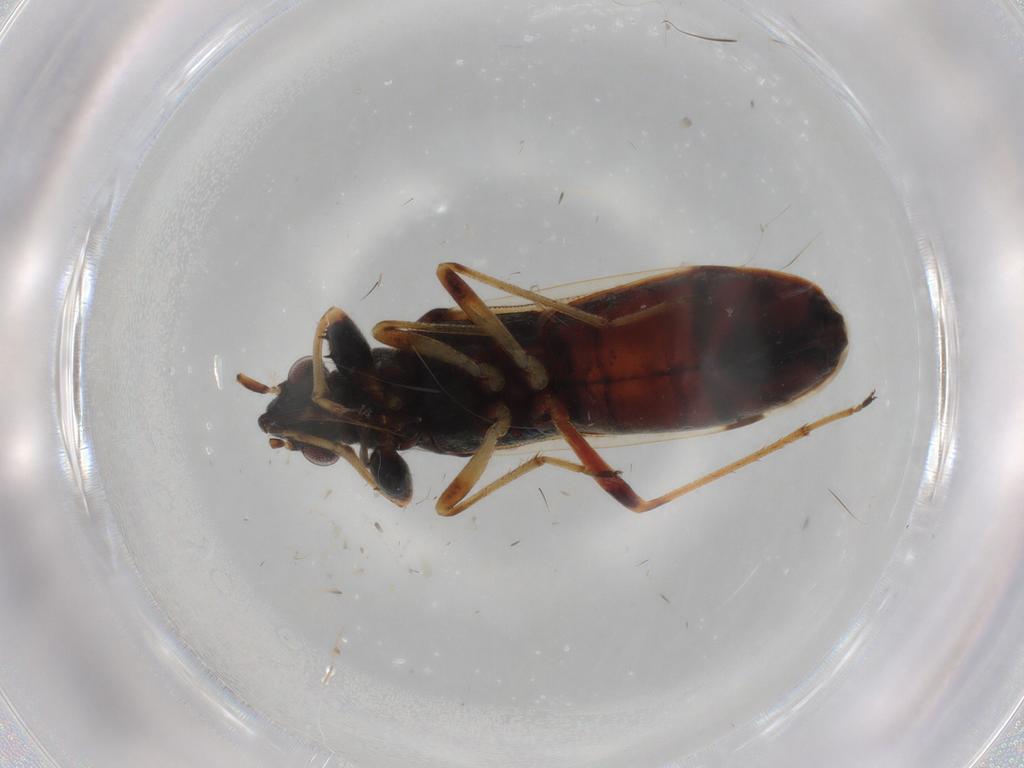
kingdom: Animalia
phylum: Arthropoda
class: Insecta
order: Hemiptera
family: Rhyparochromidae
